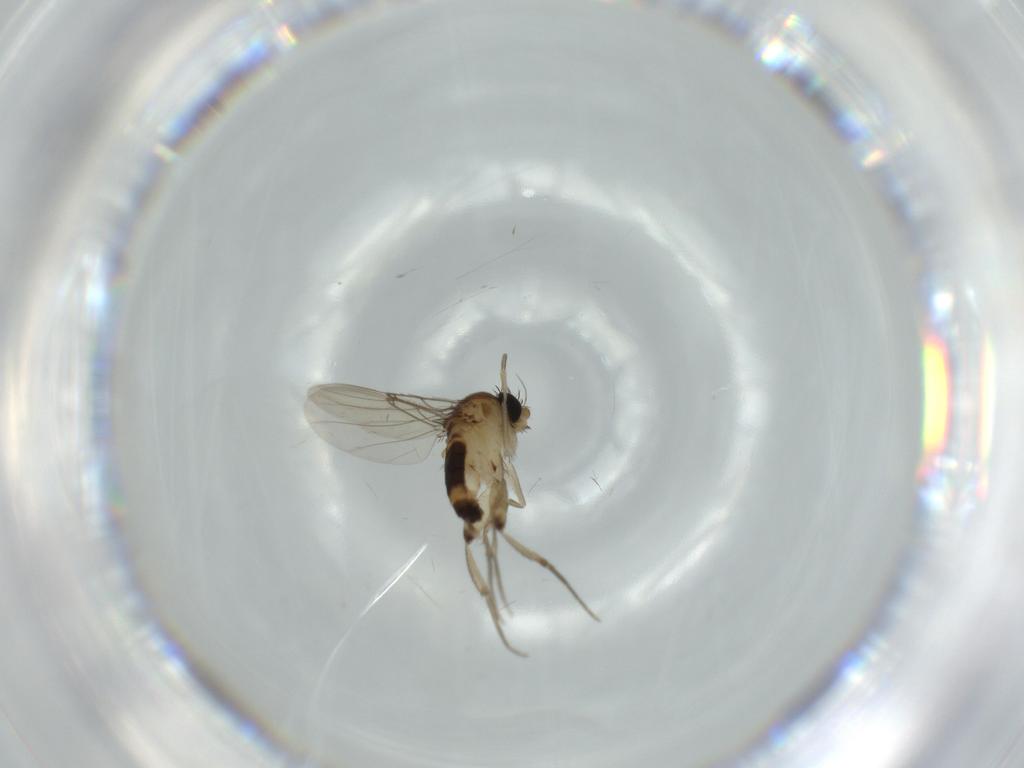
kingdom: Animalia
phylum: Arthropoda
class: Insecta
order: Diptera
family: Phoridae
